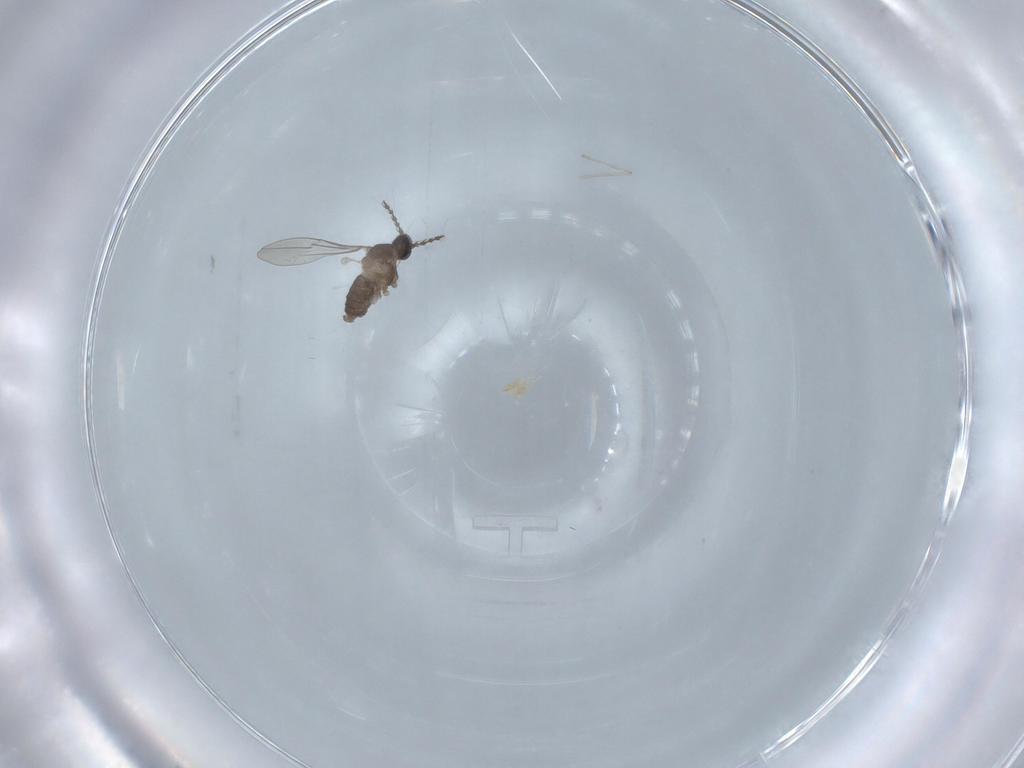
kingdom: Animalia
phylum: Arthropoda
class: Insecta
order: Diptera
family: Cecidomyiidae
